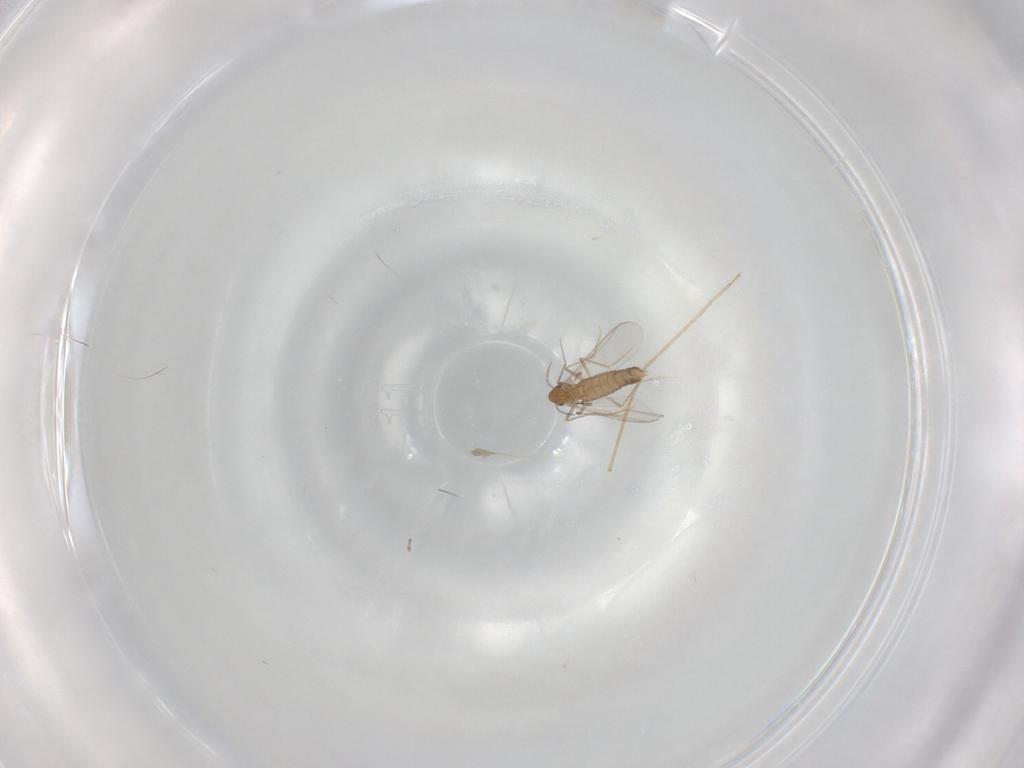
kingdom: Animalia
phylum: Arthropoda
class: Insecta
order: Diptera
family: Chironomidae
